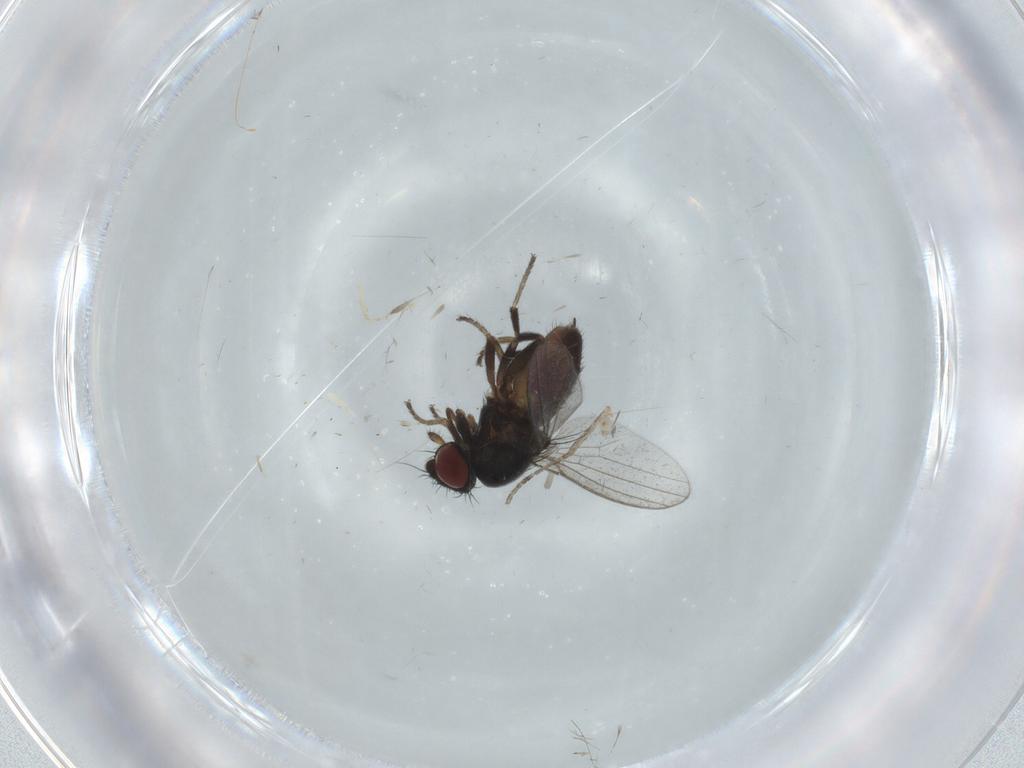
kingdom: Animalia
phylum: Arthropoda
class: Insecta
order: Diptera
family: Milichiidae
